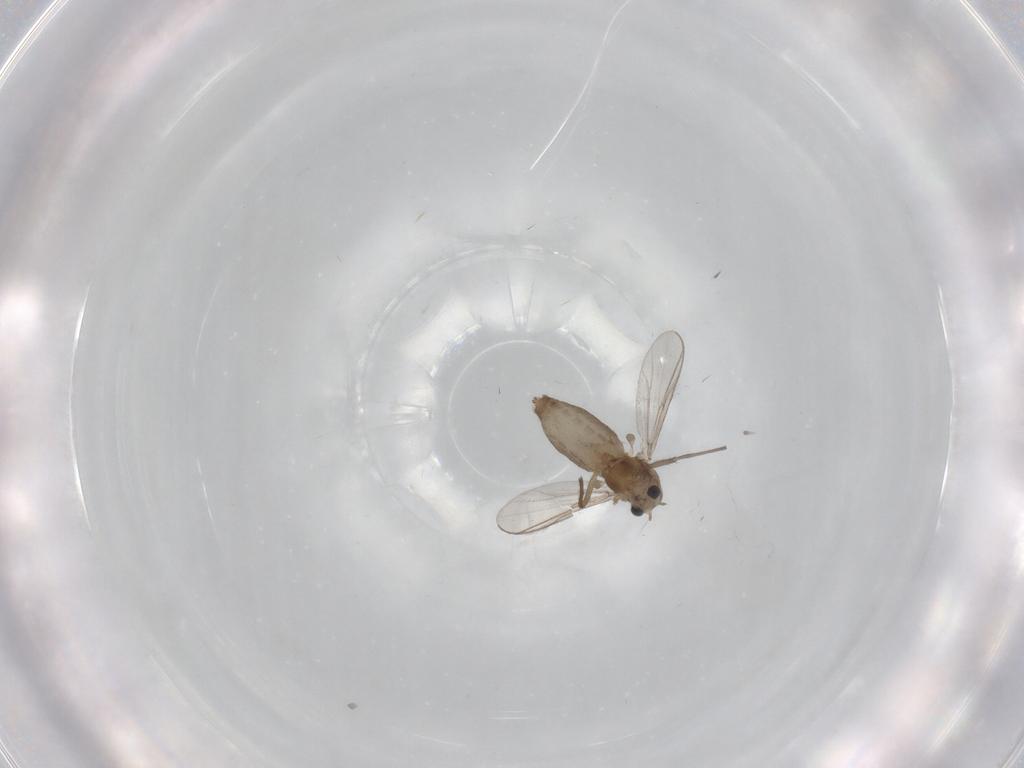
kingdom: Animalia
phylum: Arthropoda
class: Insecta
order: Diptera
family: Chironomidae
